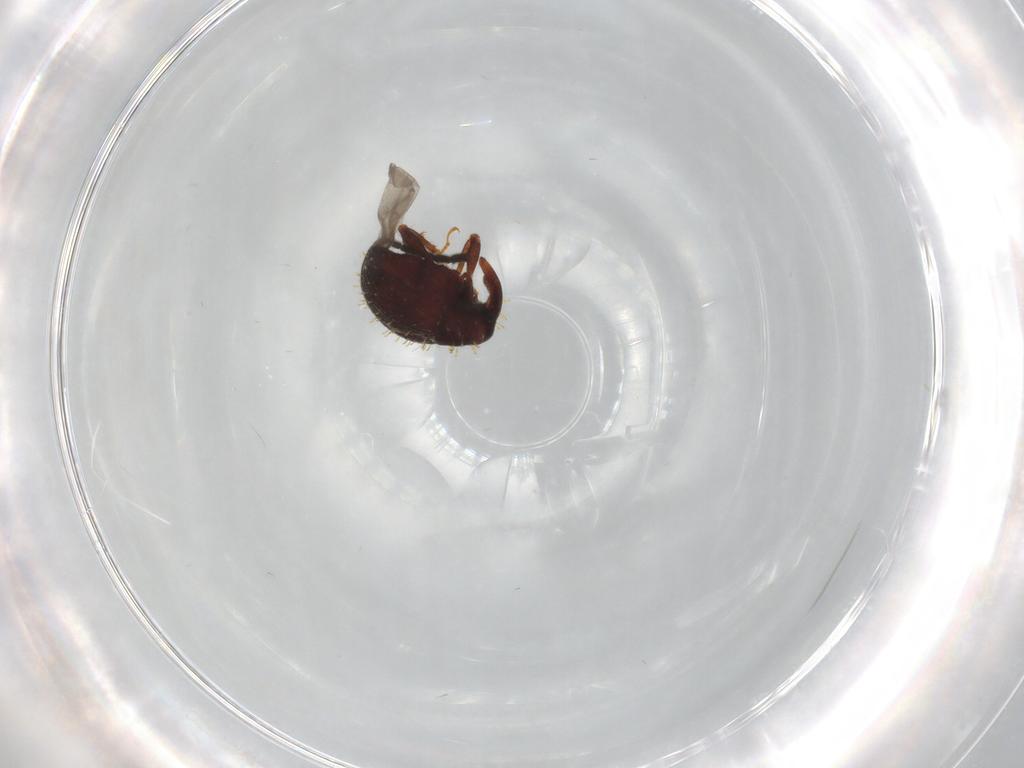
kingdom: Animalia
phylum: Arthropoda
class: Insecta
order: Coleoptera
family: Curculionidae
